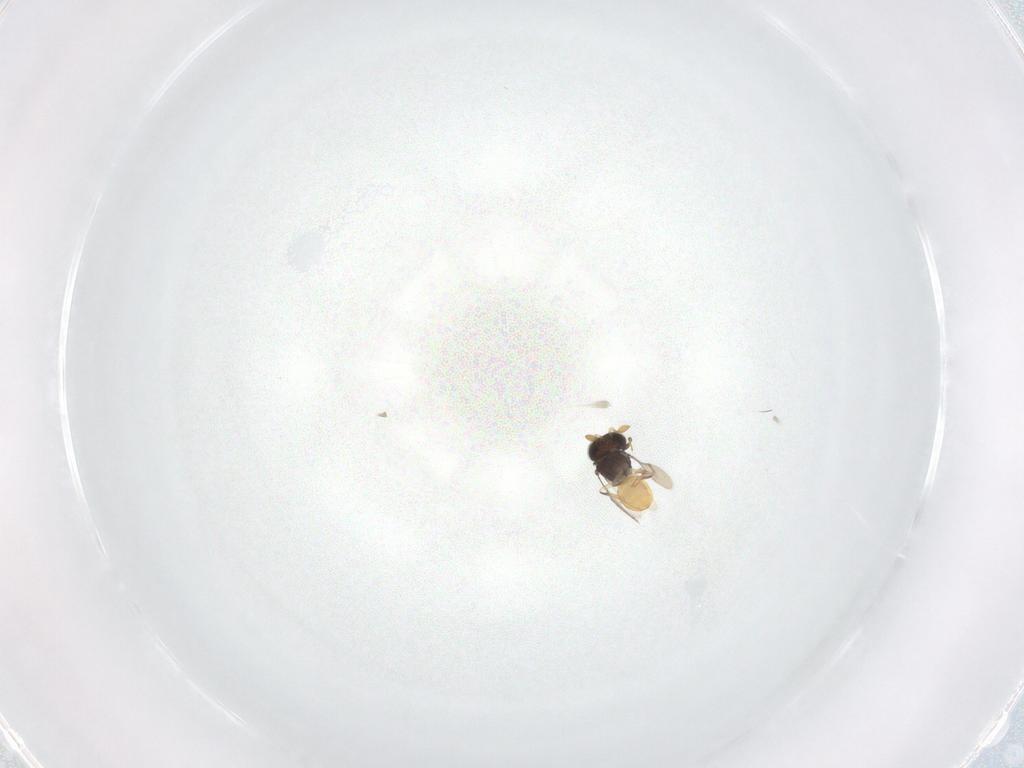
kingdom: Animalia
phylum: Arthropoda
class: Insecta
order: Hymenoptera
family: Scelionidae
